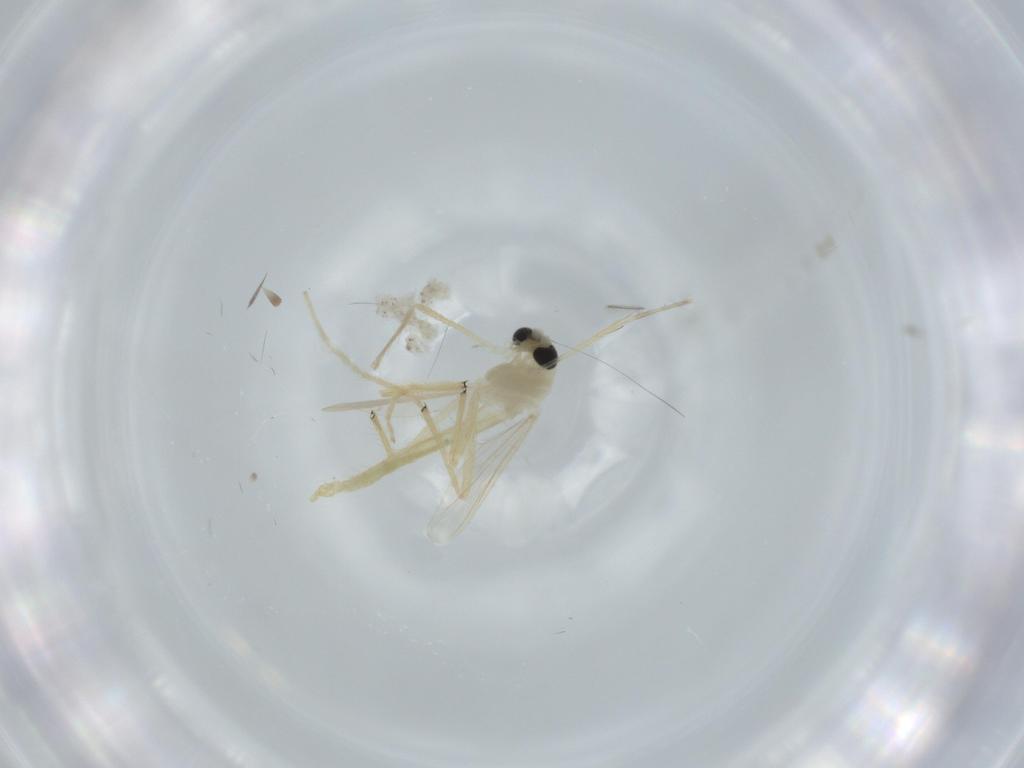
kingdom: Animalia
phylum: Arthropoda
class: Insecta
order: Diptera
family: Chironomidae
